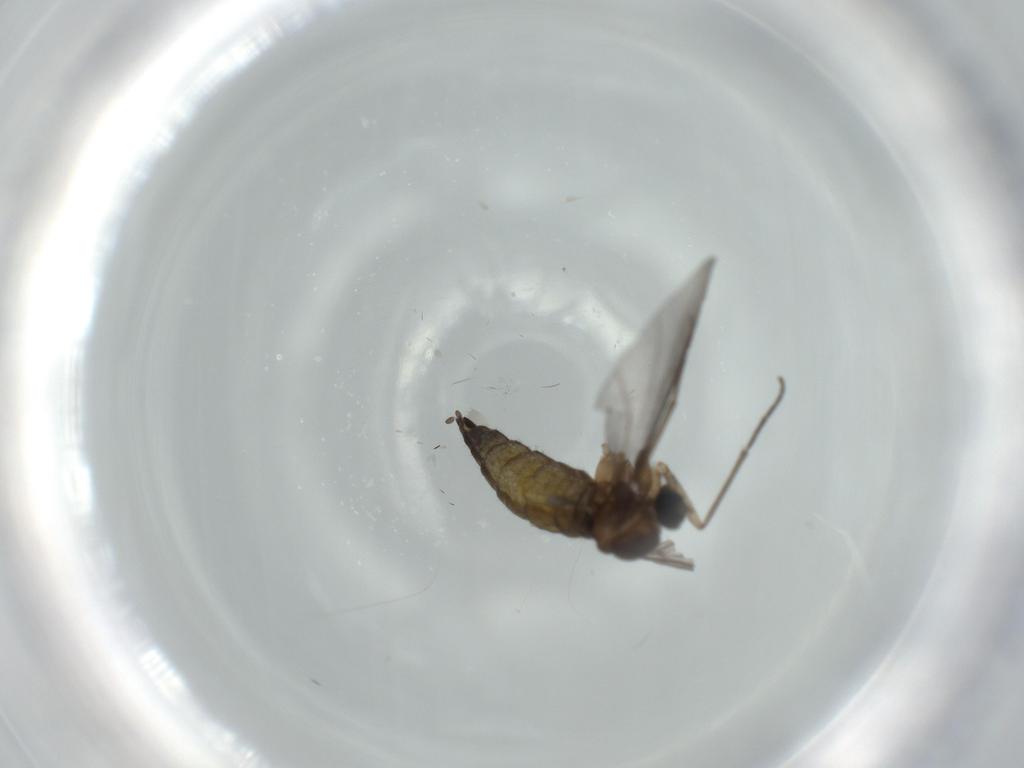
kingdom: Animalia
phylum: Arthropoda
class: Insecta
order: Diptera
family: Sciaridae
